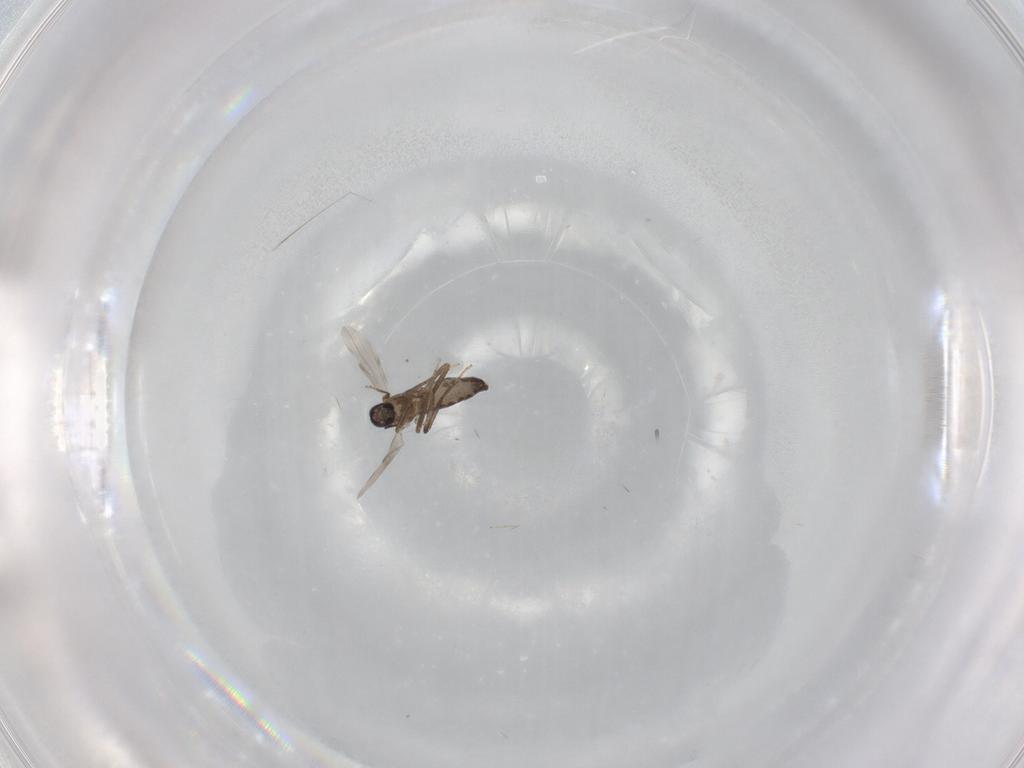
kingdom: Animalia
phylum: Arthropoda
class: Insecta
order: Diptera
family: Ceratopogonidae
